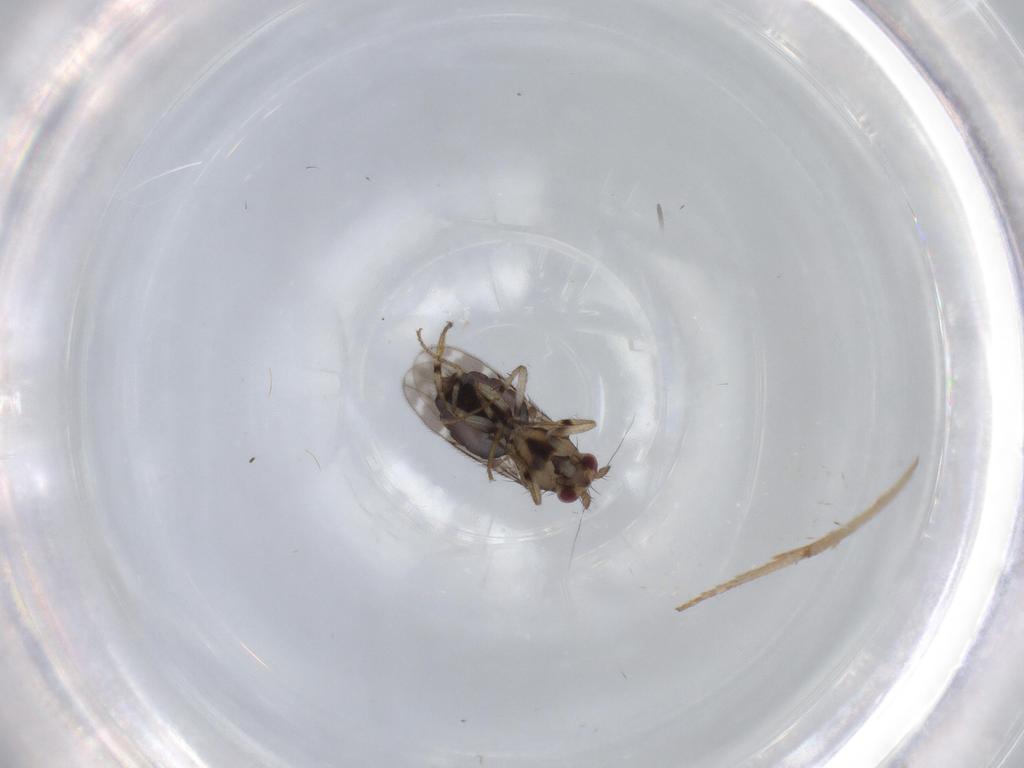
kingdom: Animalia
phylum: Arthropoda
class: Insecta
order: Diptera
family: Sphaeroceridae
